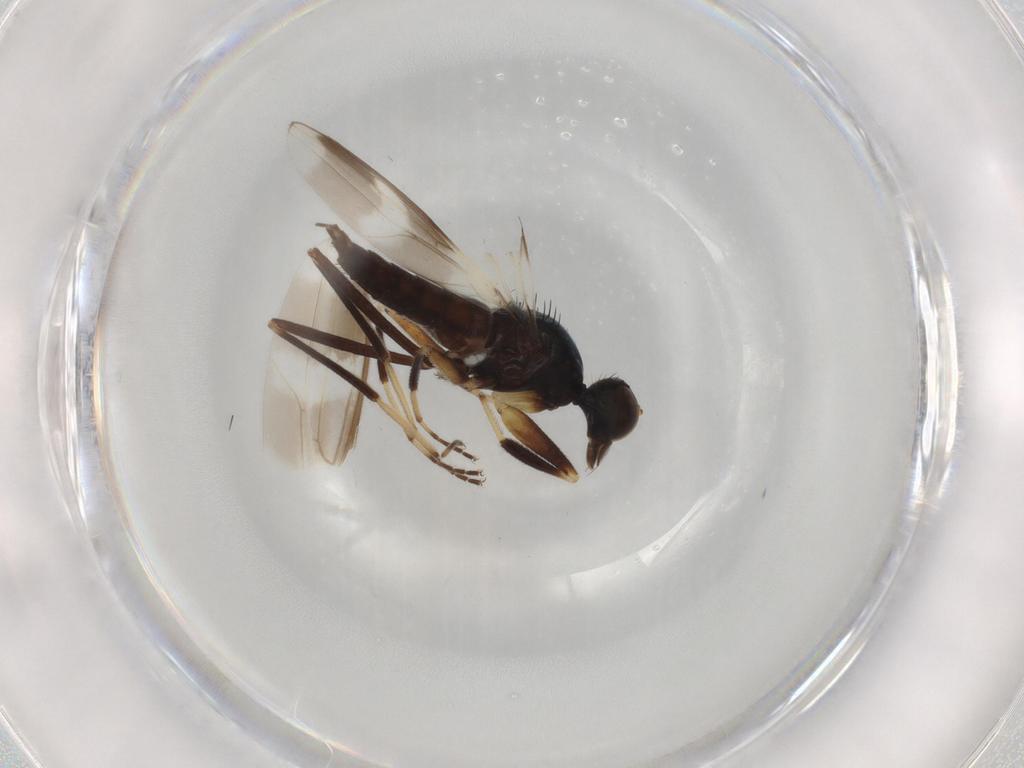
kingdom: Animalia
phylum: Arthropoda
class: Insecta
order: Diptera
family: Hybotidae
